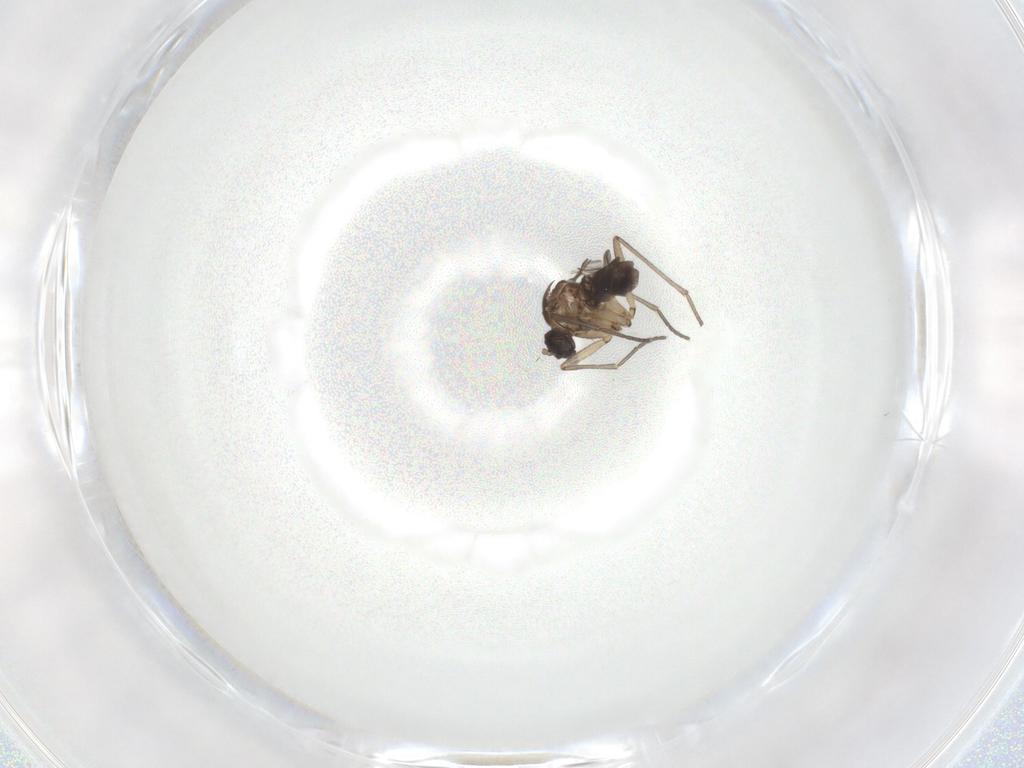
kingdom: Animalia
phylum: Arthropoda
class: Insecta
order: Diptera
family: Sciaridae
